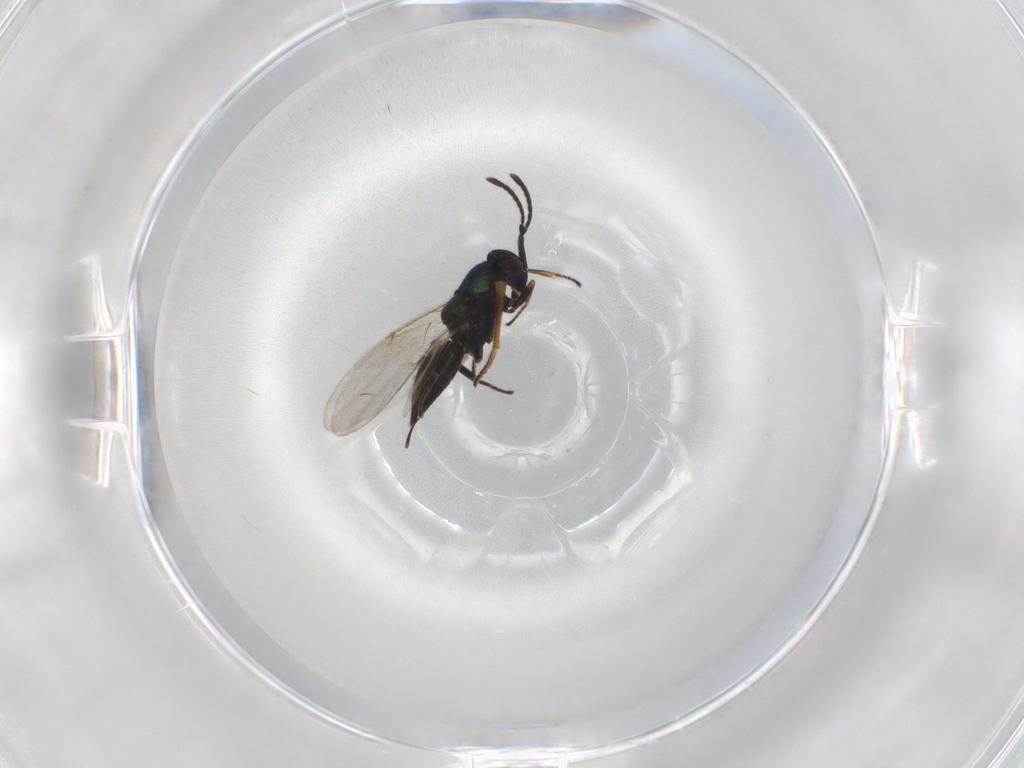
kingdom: Animalia
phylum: Arthropoda
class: Insecta
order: Hymenoptera
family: Encyrtidae
